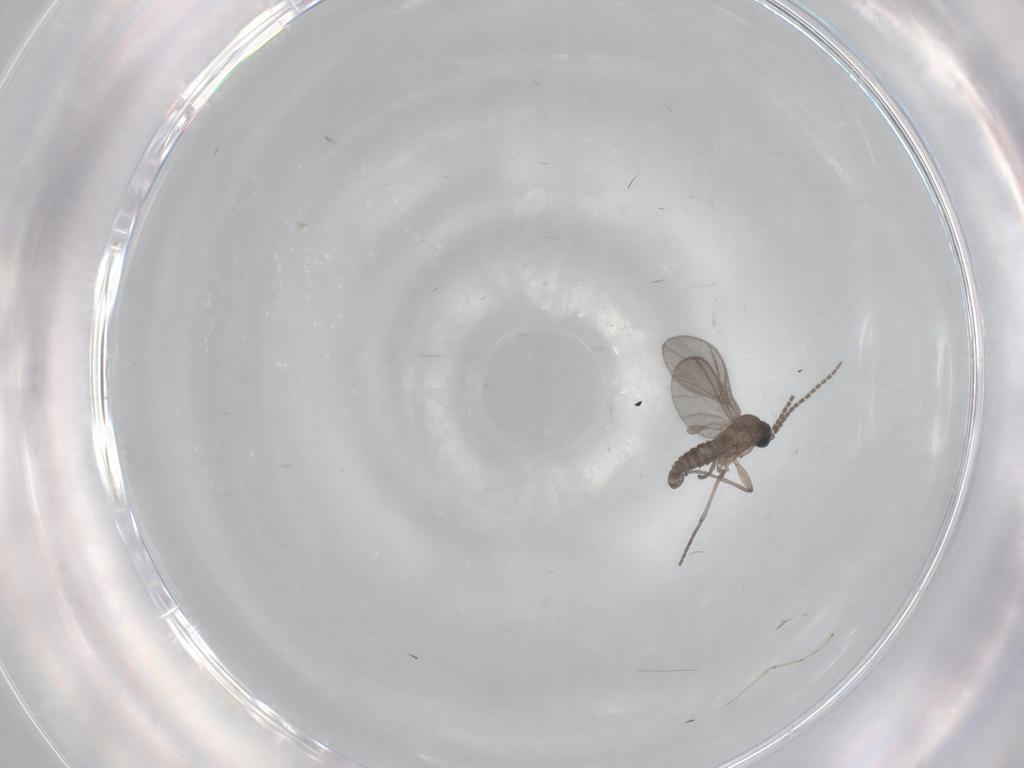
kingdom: Animalia
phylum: Arthropoda
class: Insecta
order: Diptera
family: Sciaridae
